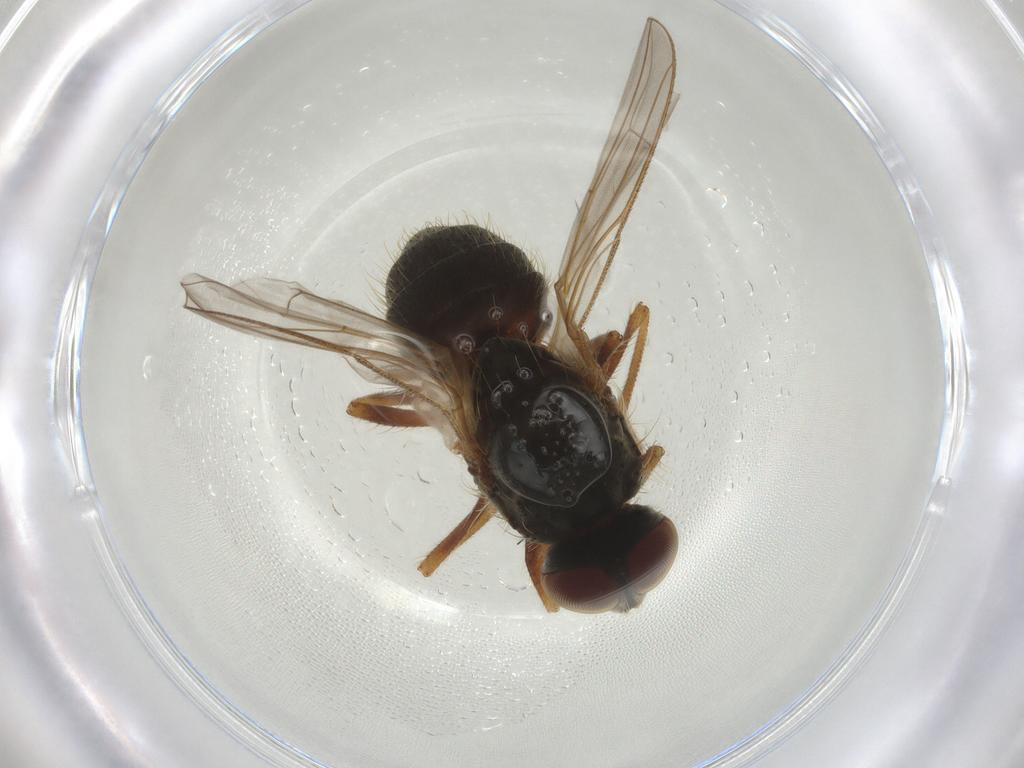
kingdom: Animalia
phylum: Arthropoda
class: Insecta
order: Diptera
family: Muscidae
